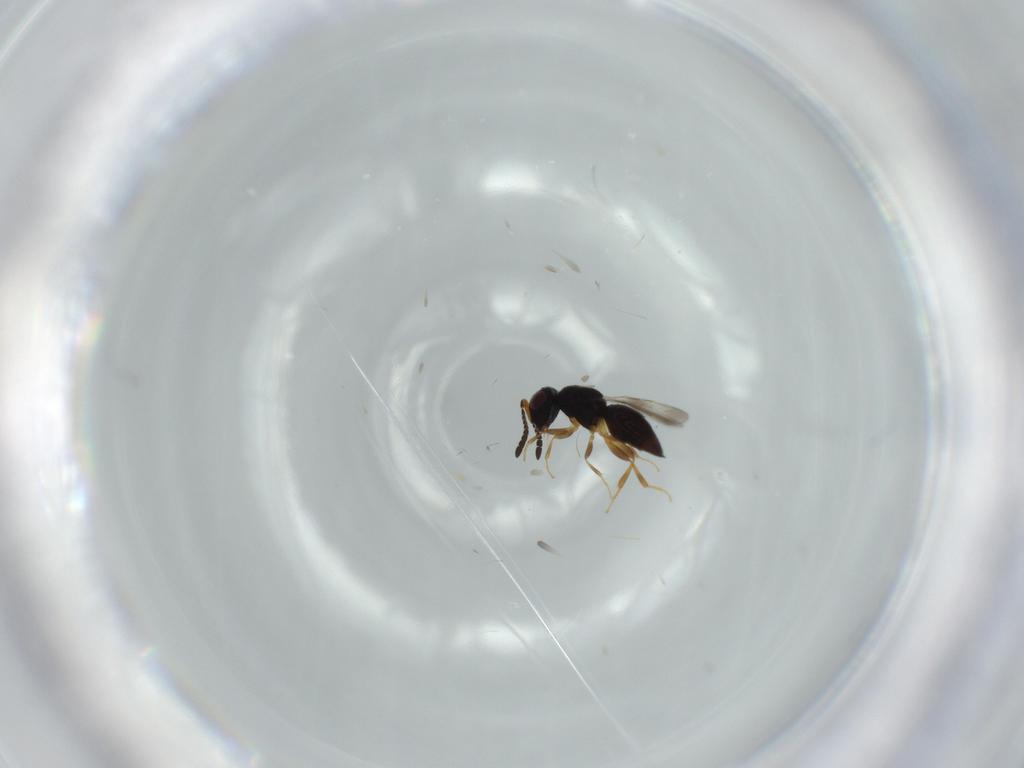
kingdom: Animalia
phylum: Arthropoda
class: Insecta
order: Hymenoptera
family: Ceraphronidae
